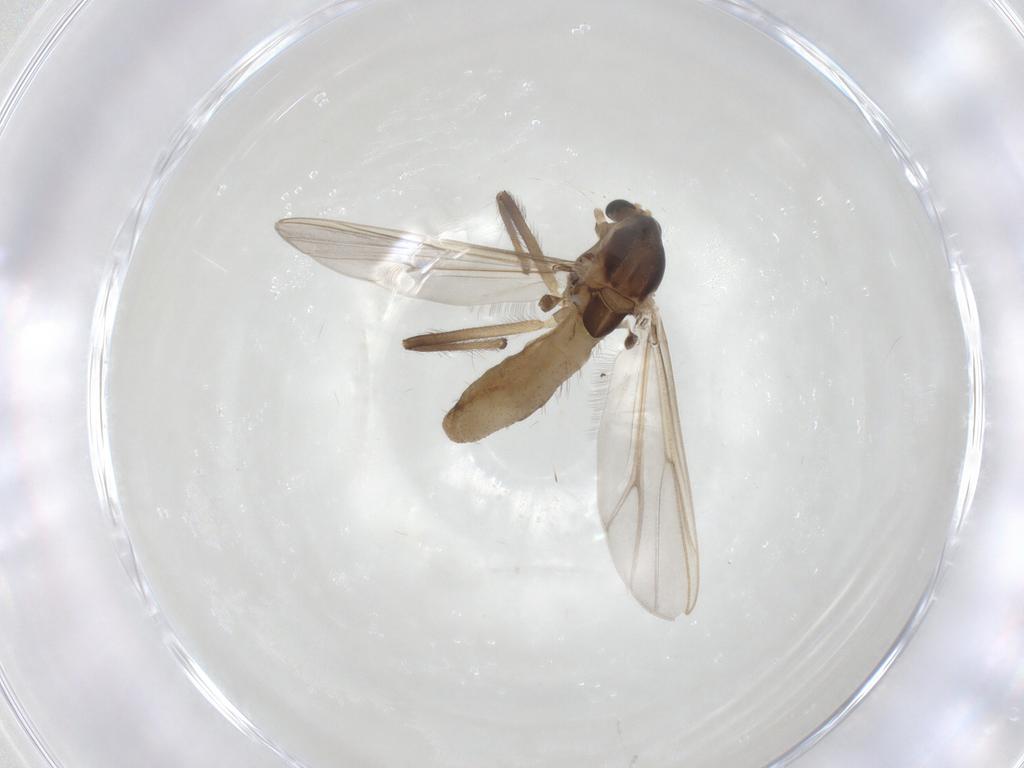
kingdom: Animalia
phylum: Arthropoda
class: Insecta
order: Diptera
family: Chironomidae
